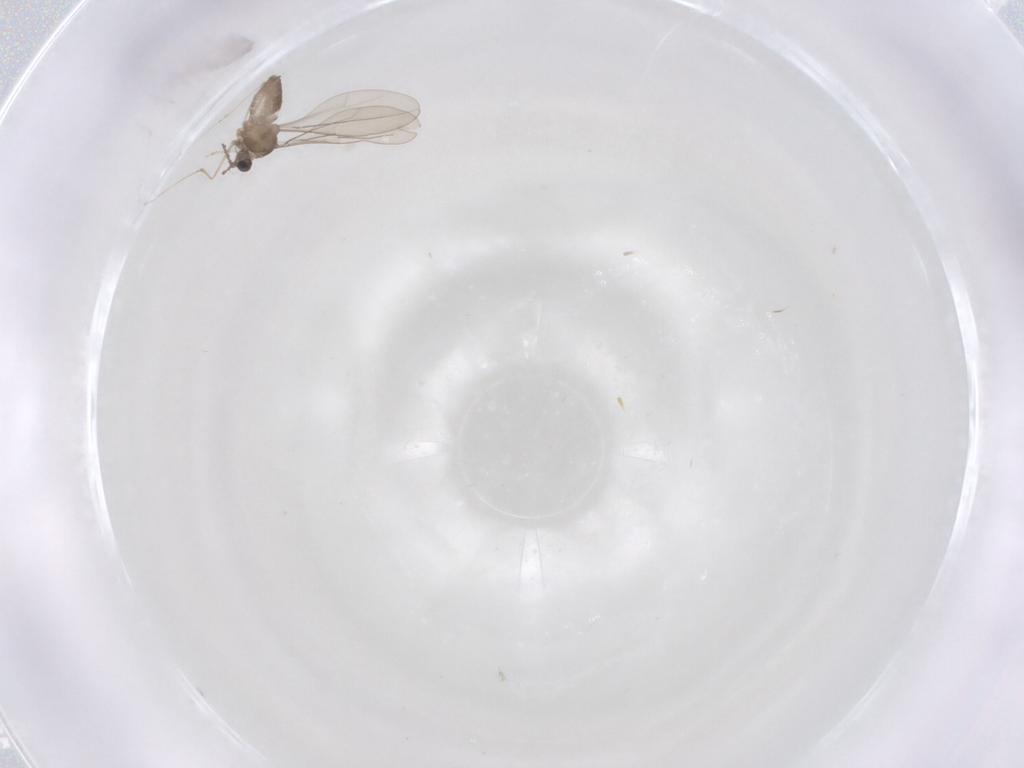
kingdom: Animalia
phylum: Arthropoda
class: Insecta
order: Diptera
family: Cecidomyiidae
